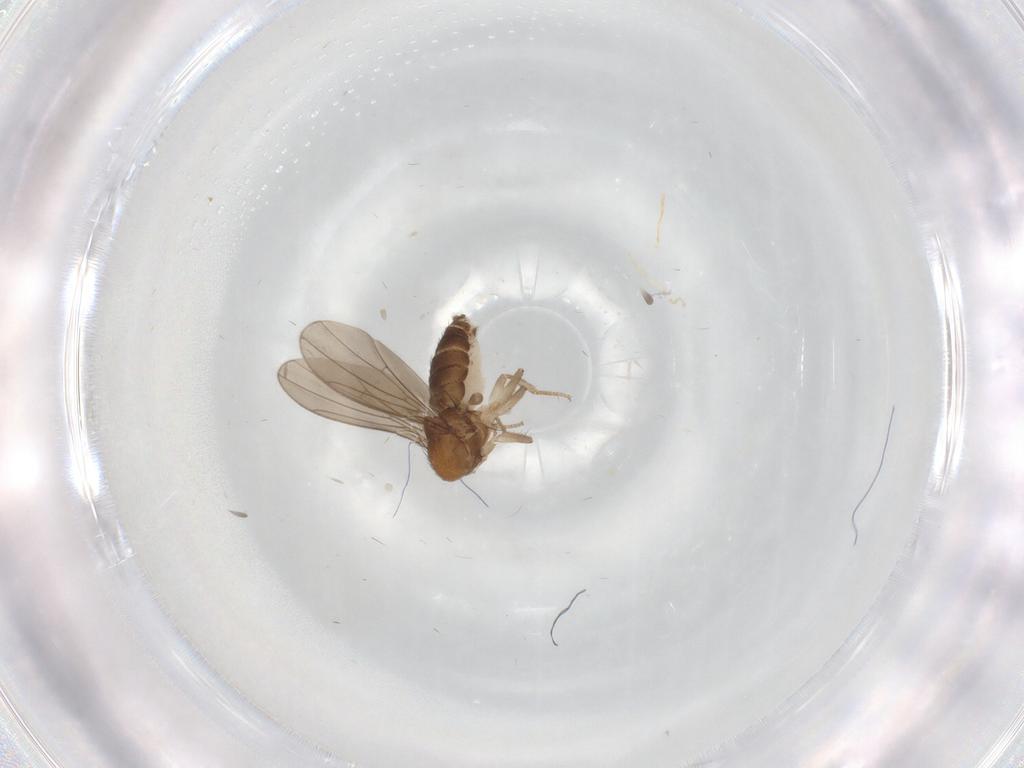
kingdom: Animalia
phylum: Arthropoda
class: Insecta
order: Diptera
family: Drosophilidae
